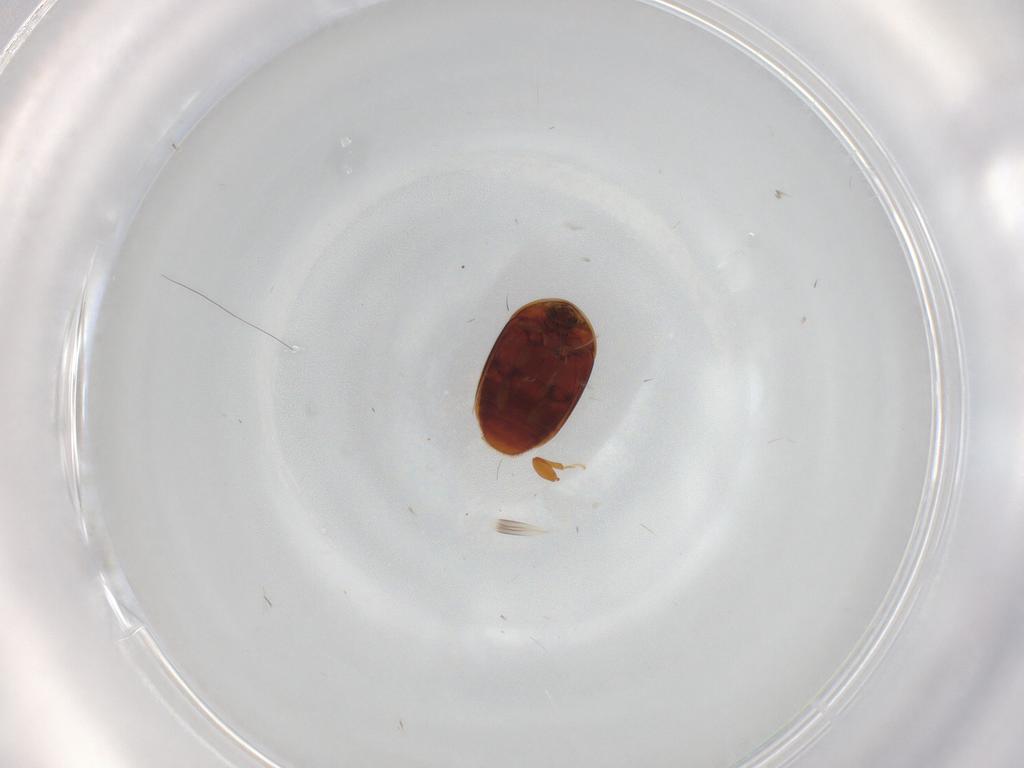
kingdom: Animalia
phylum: Arthropoda
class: Insecta
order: Coleoptera
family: Corylophidae
